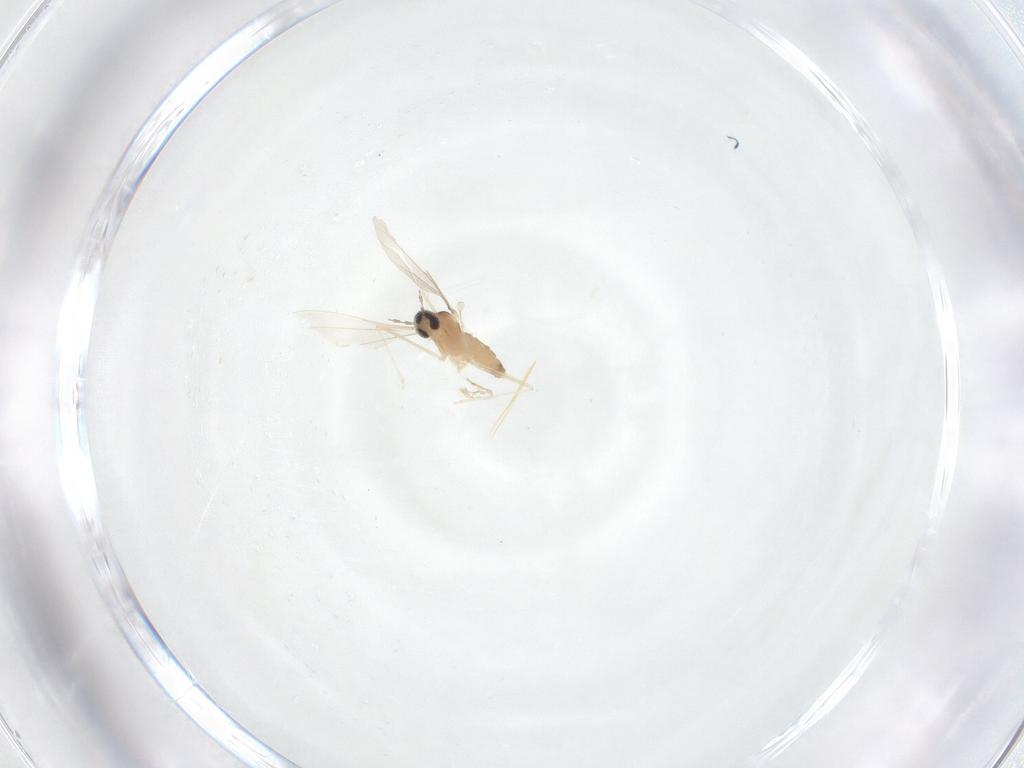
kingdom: Animalia
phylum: Arthropoda
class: Insecta
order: Diptera
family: Cecidomyiidae
